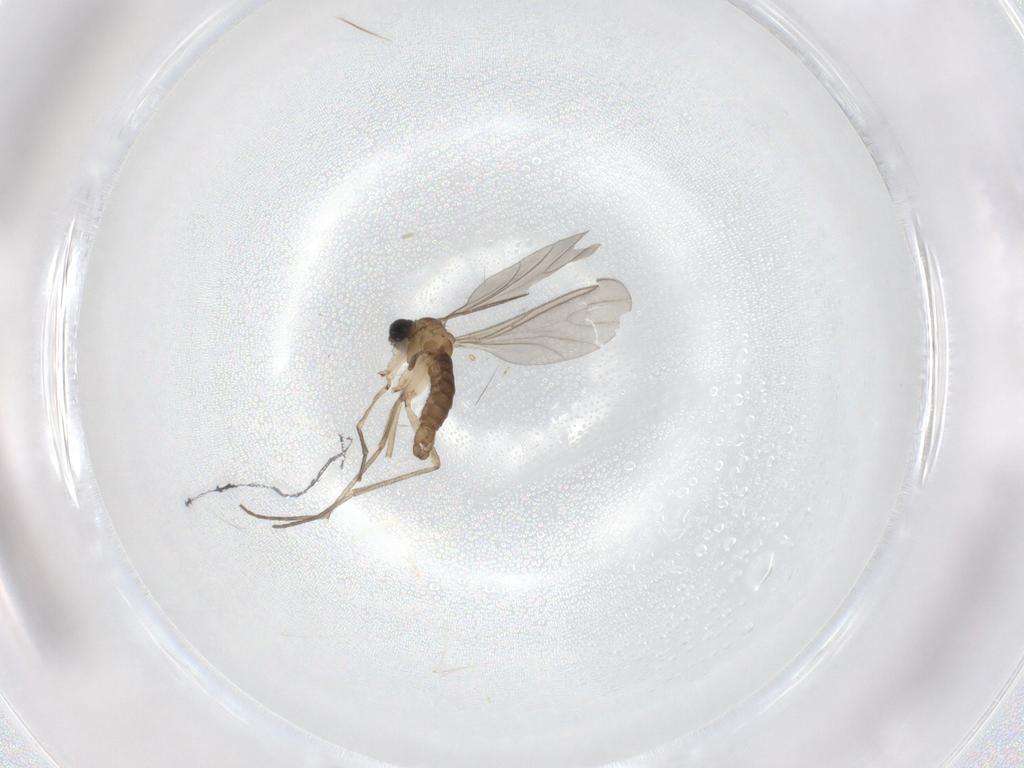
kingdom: Animalia
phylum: Arthropoda
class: Insecta
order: Diptera
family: Sciaridae
